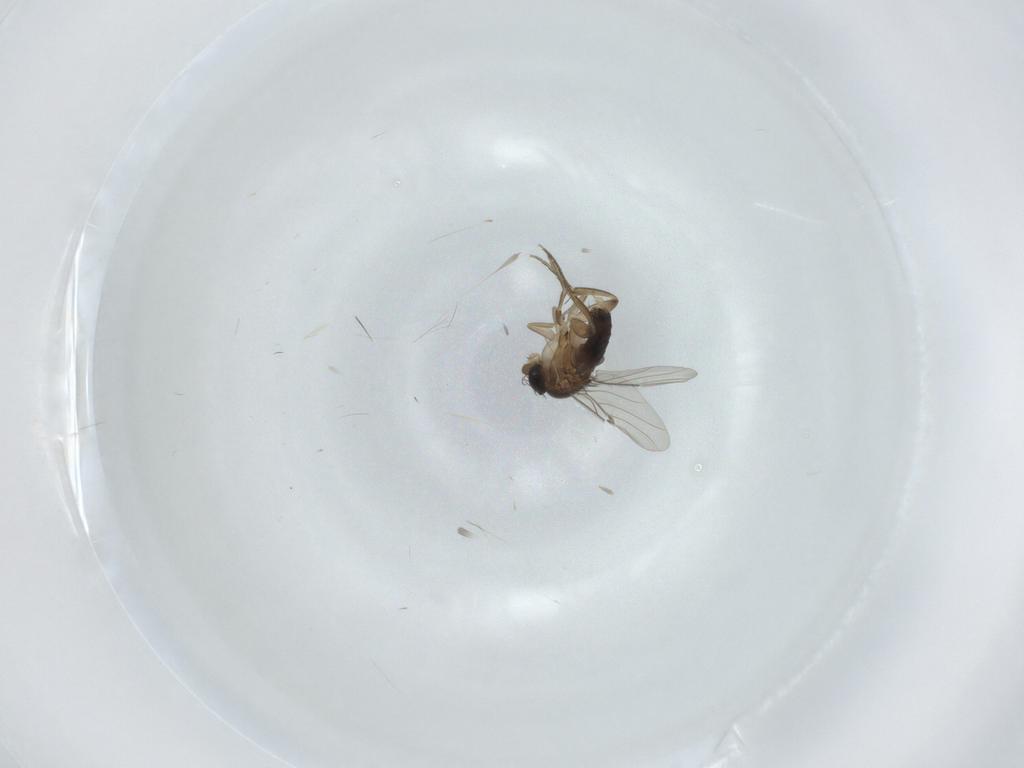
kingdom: Animalia
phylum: Arthropoda
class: Insecta
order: Diptera
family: Phoridae
